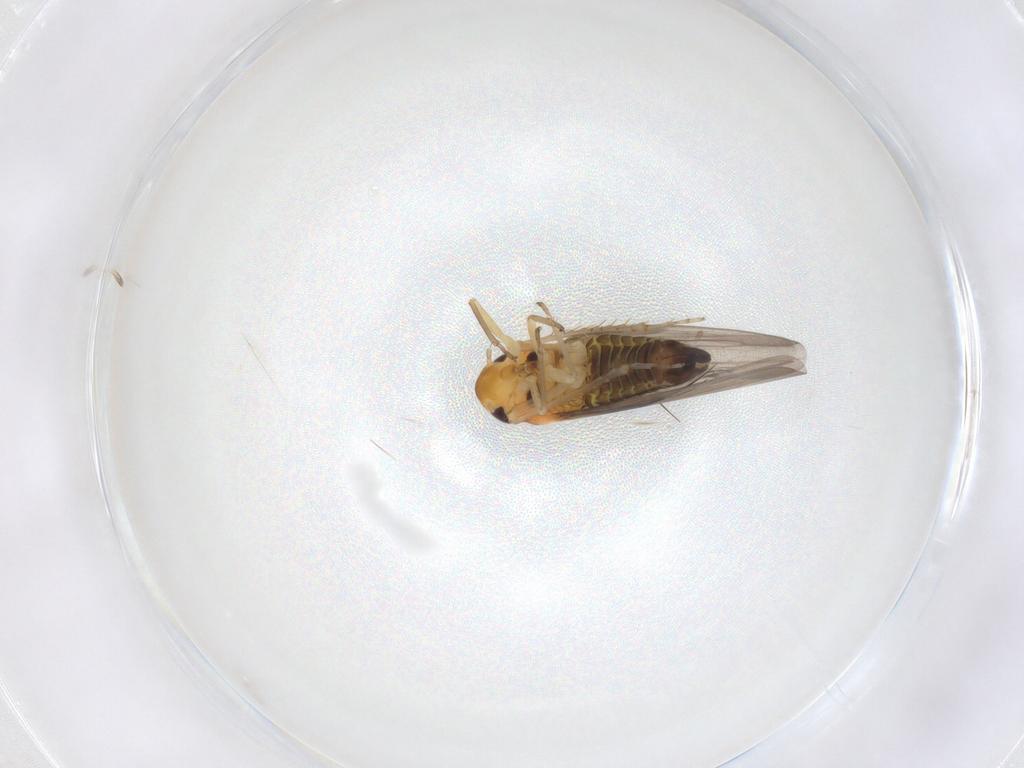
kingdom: Animalia
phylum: Arthropoda
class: Insecta
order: Hemiptera
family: Cicadellidae
